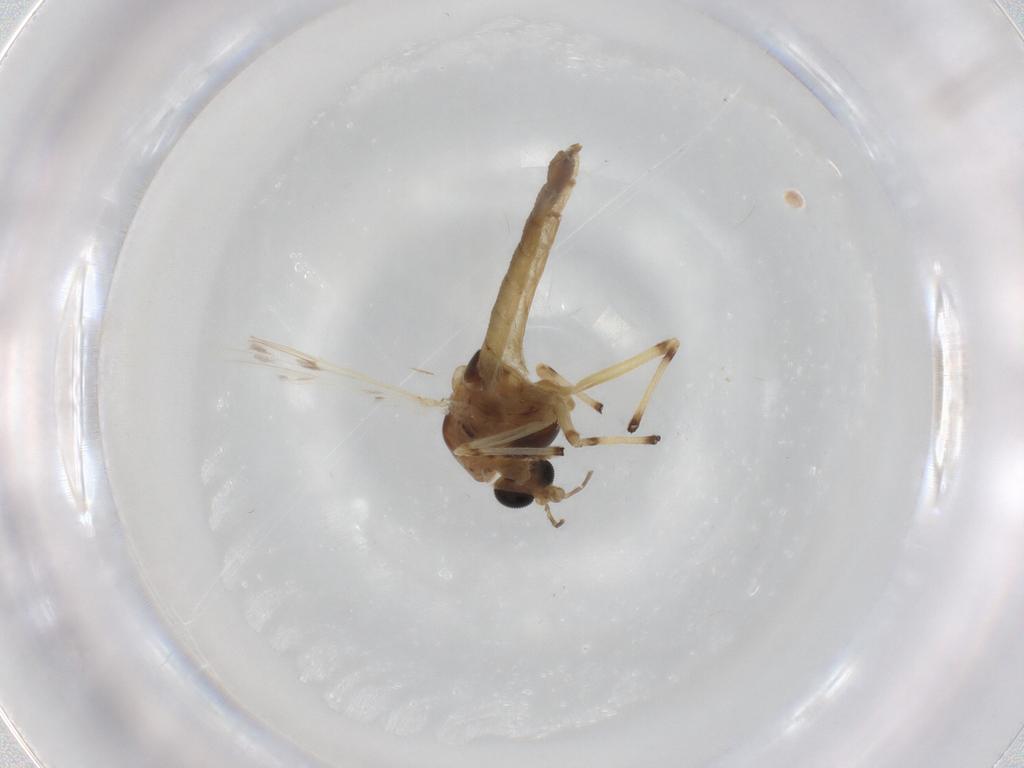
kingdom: Animalia
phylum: Arthropoda
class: Insecta
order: Diptera
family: Chironomidae
